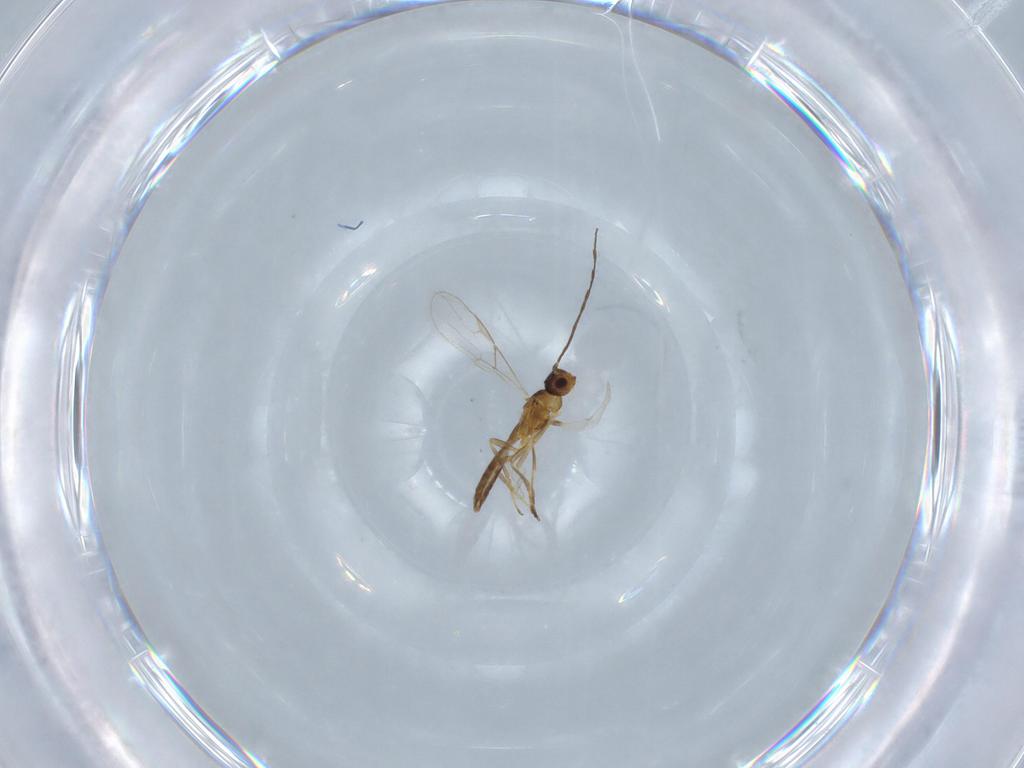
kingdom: Animalia
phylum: Arthropoda
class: Insecta
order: Hymenoptera
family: Braconidae
